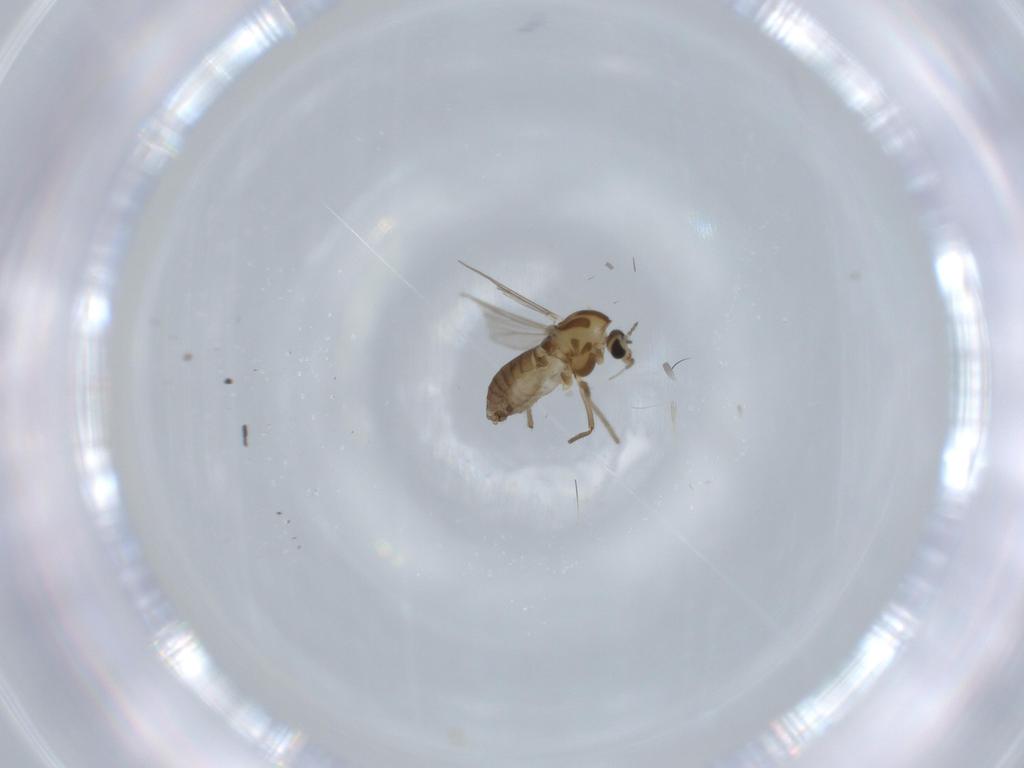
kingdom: Animalia
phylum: Arthropoda
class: Insecta
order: Diptera
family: Chironomidae
